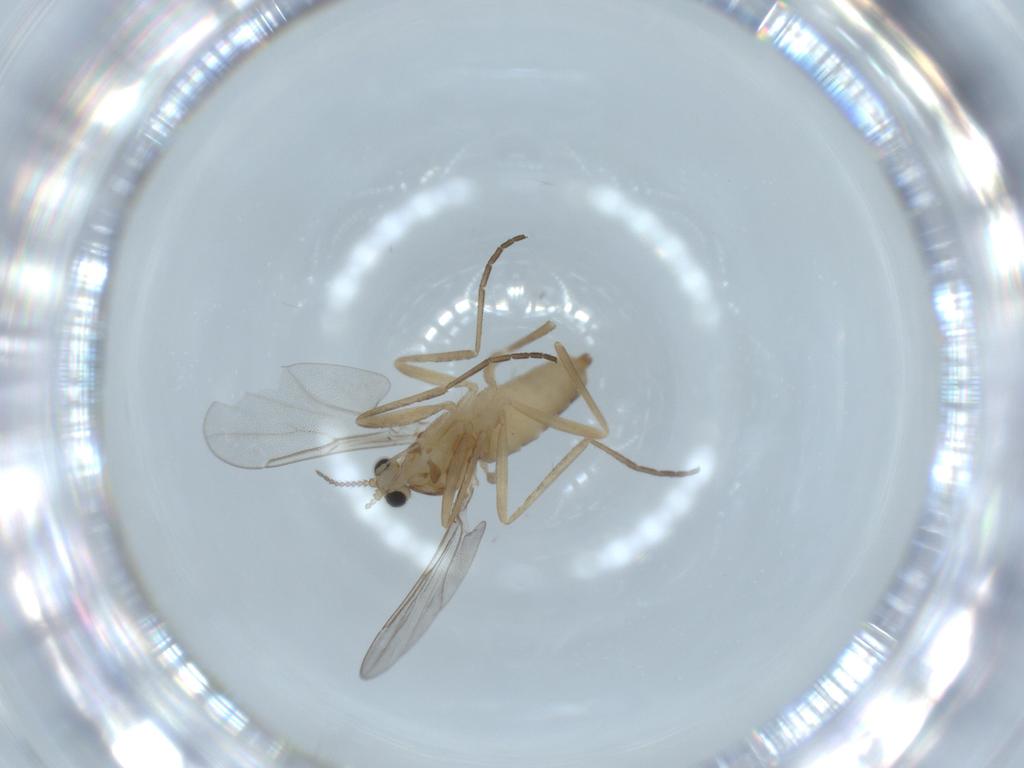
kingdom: Animalia
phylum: Arthropoda
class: Insecta
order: Diptera
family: Cecidomyiidae
